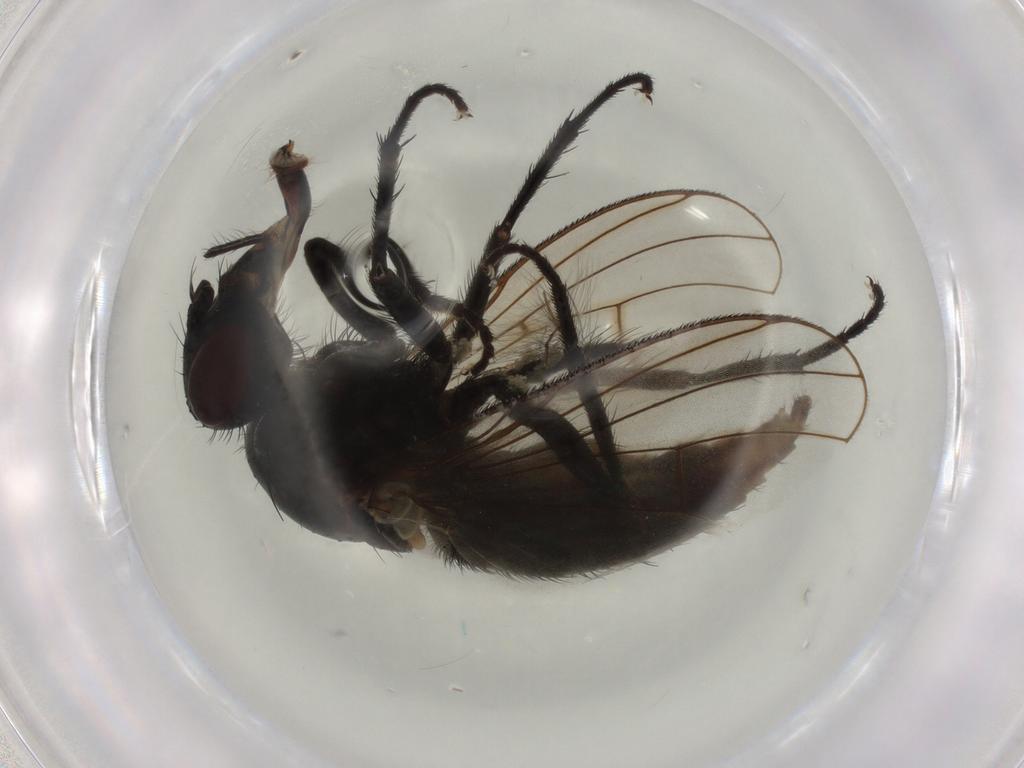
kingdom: Animalia
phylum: Arthropoda
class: Insecta
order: Diptera
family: Muscidae
